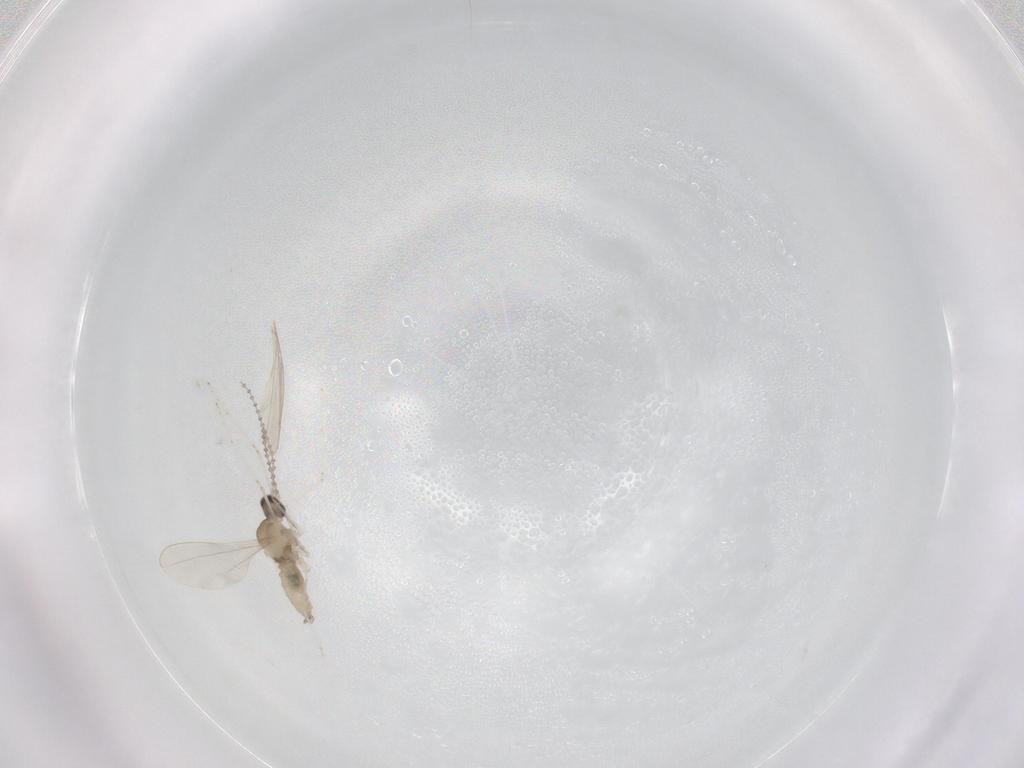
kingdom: Animalia
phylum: Arthropoda
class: Insecta
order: Diptera
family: Cecidomyiidae
